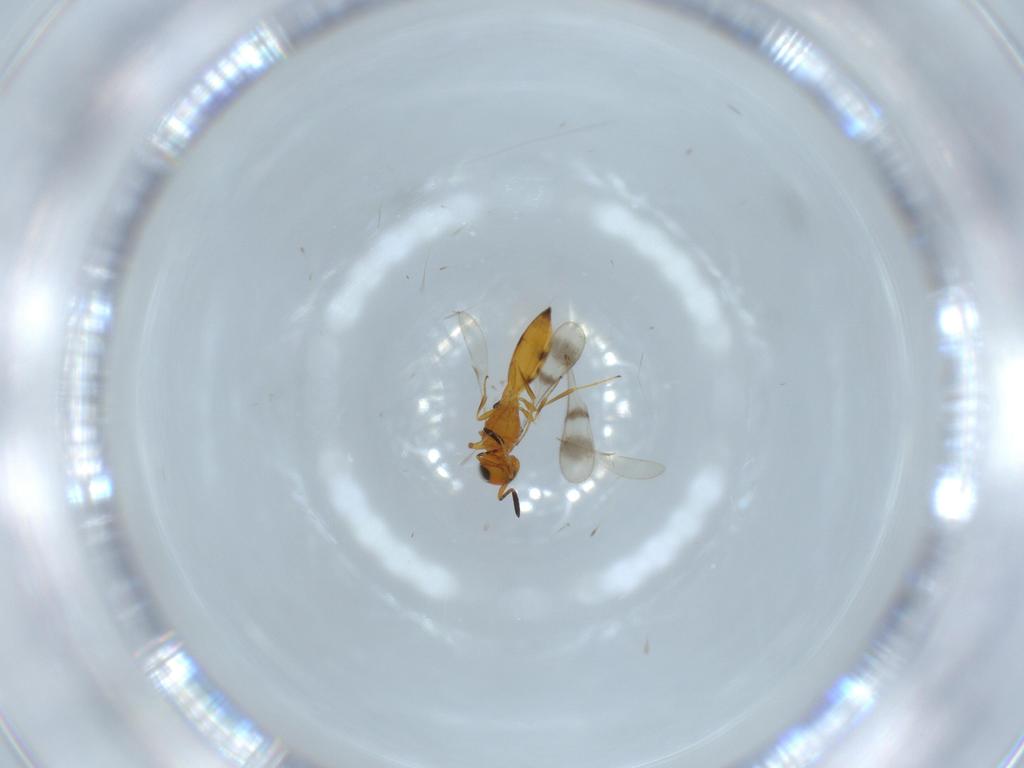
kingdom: Animalia
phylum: Arthropoda
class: Insecta
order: Hymenoptera
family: Scelionidae
